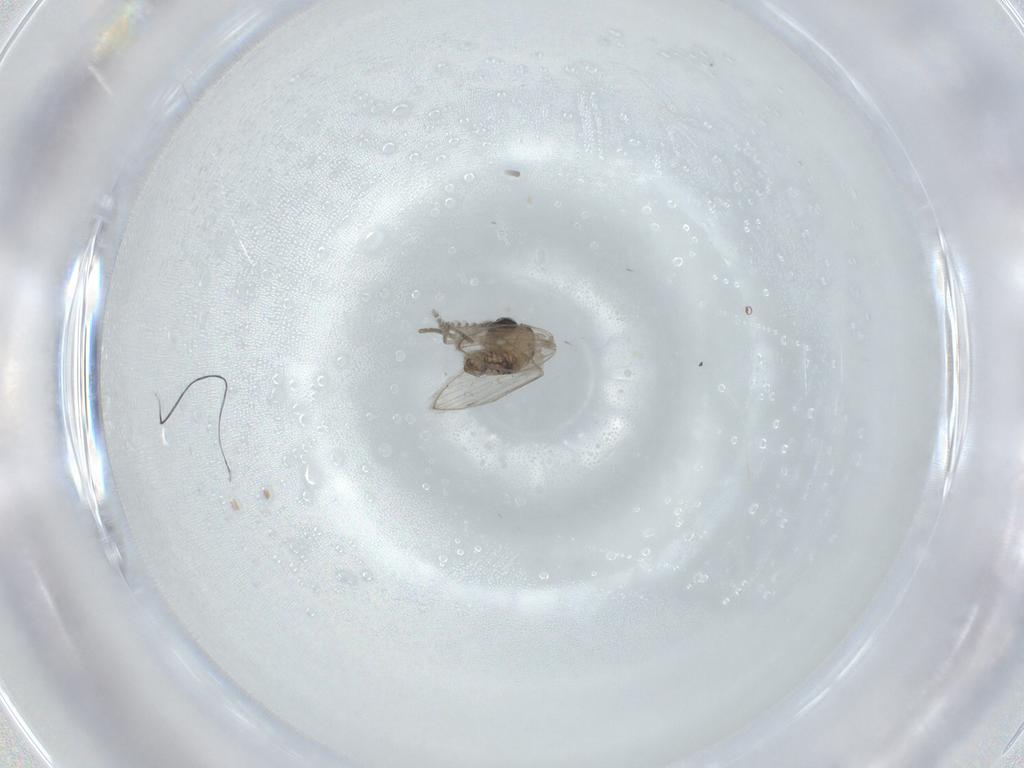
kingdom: Animalia
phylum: Arthropoda
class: Insecta
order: Diptera
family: Psychodidae
